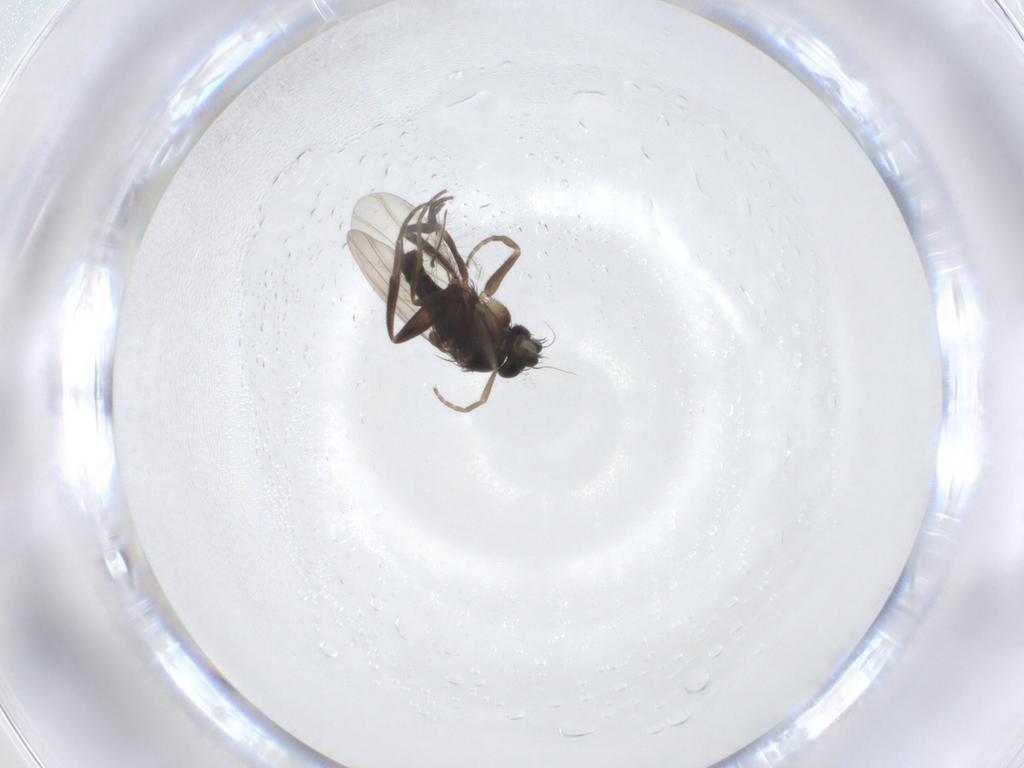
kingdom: Animalia
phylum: Arthropoda
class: Insecta
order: Diptera
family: Phoridae
